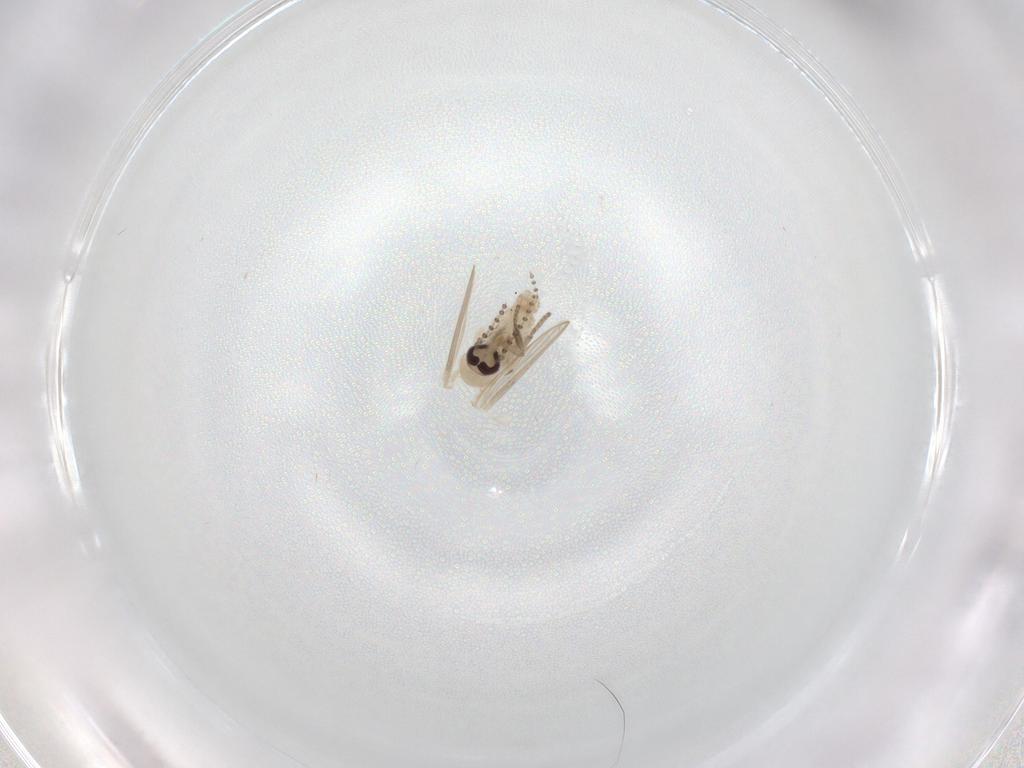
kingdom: Animalia
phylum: Arthropoda
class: Insecta
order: Diptera
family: Psychodidae
